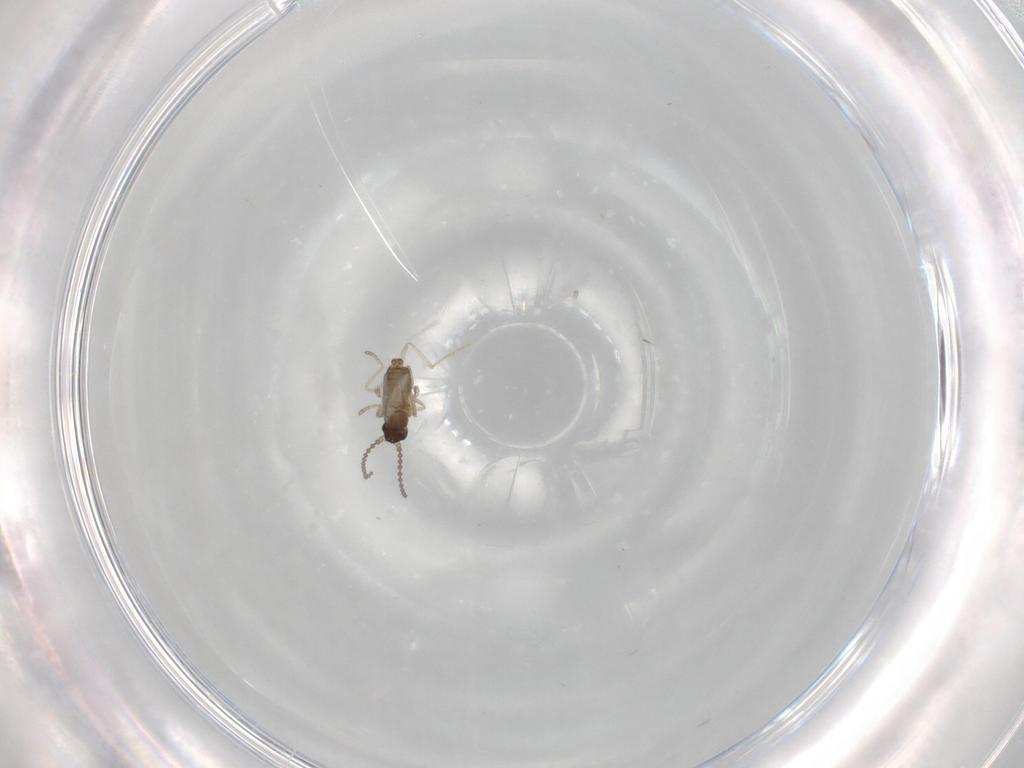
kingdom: Animalia
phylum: Arthropoda
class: Insecta
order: Diptera
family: Cecidomyiidae
